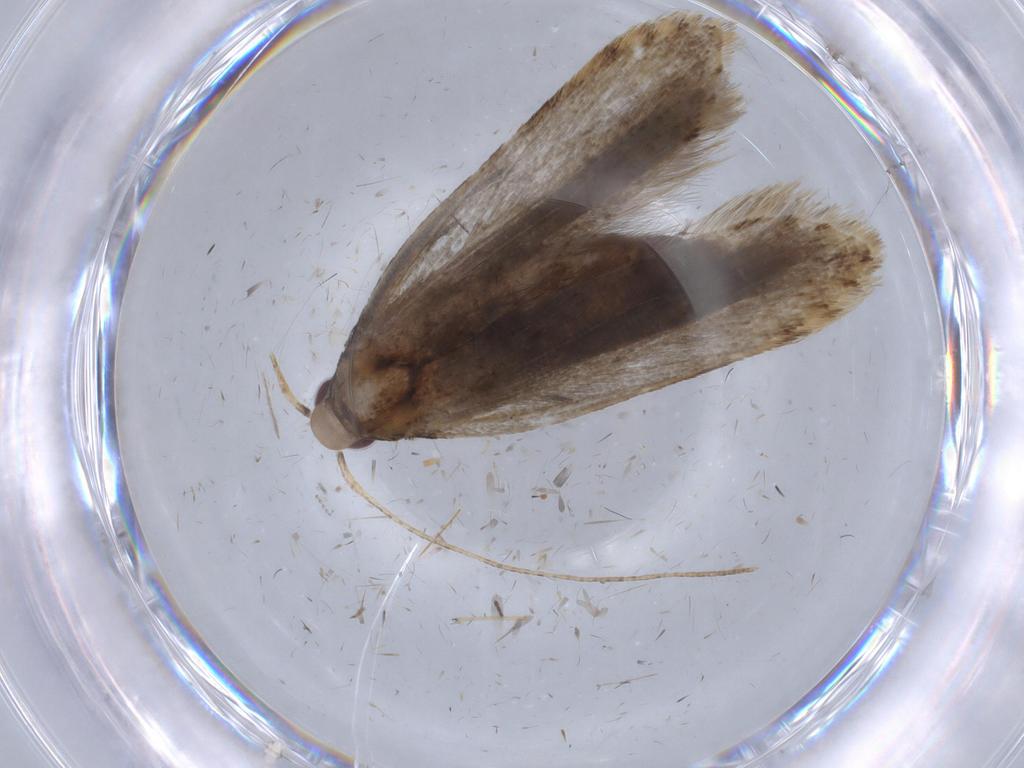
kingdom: Animalia
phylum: Arthropoda
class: Insecta
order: Lepidoptera
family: Gelechiidae
